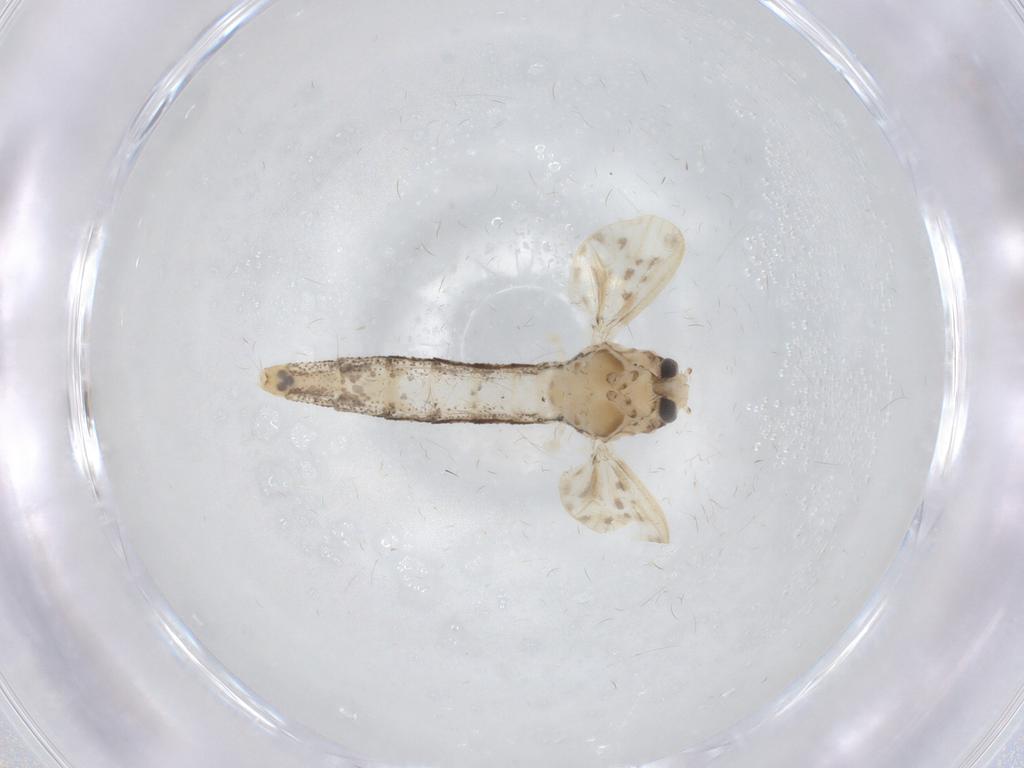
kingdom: Animalia
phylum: Arthropoda
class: Insecta
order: Diptera
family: Chaoboridae
